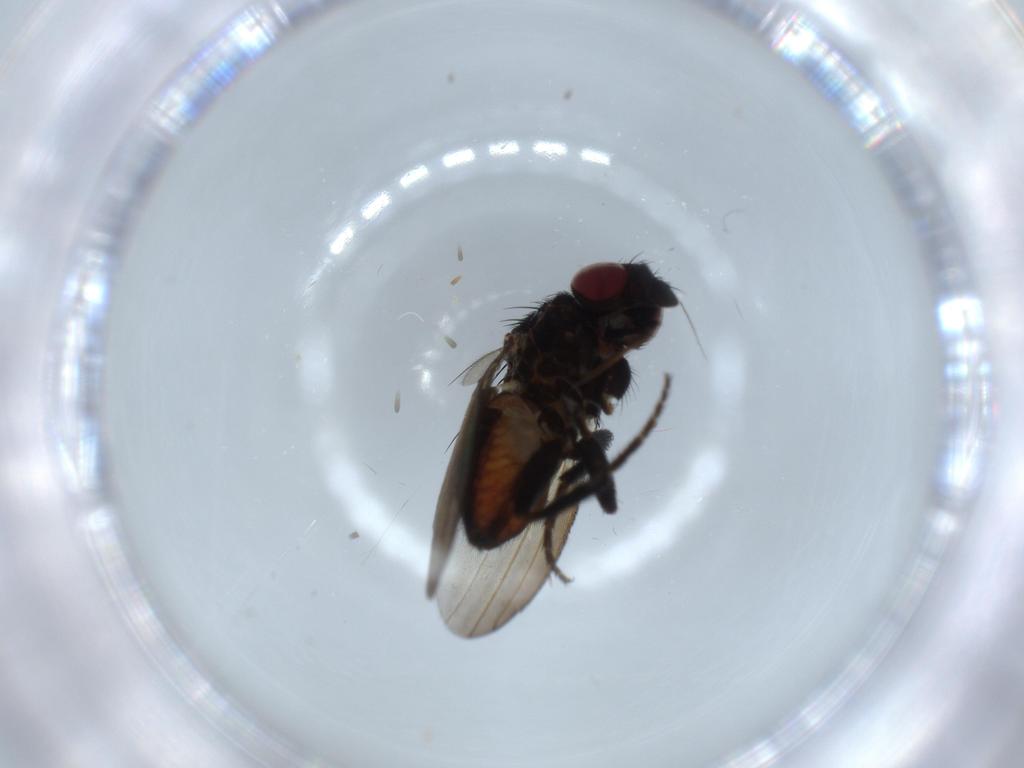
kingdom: Animalia
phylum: Arthropoda
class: Insecta
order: Diptera
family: Milichiidae
